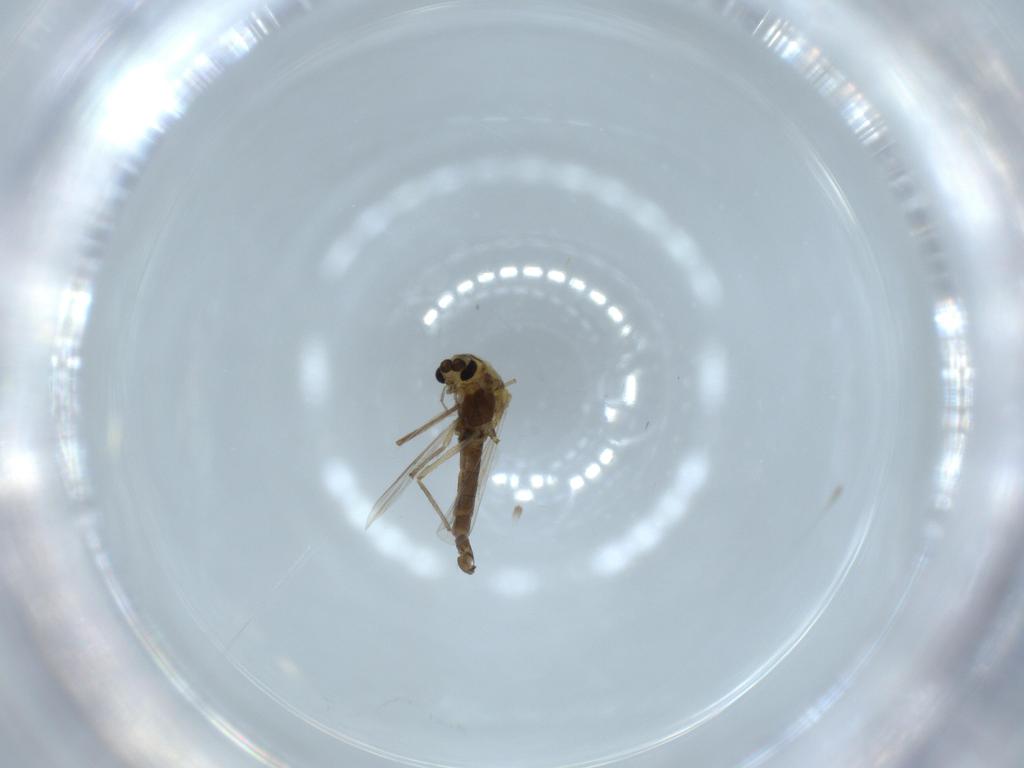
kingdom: Animalia
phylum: Arthropoda
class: Insecta
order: Diptera
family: Chironomidae
